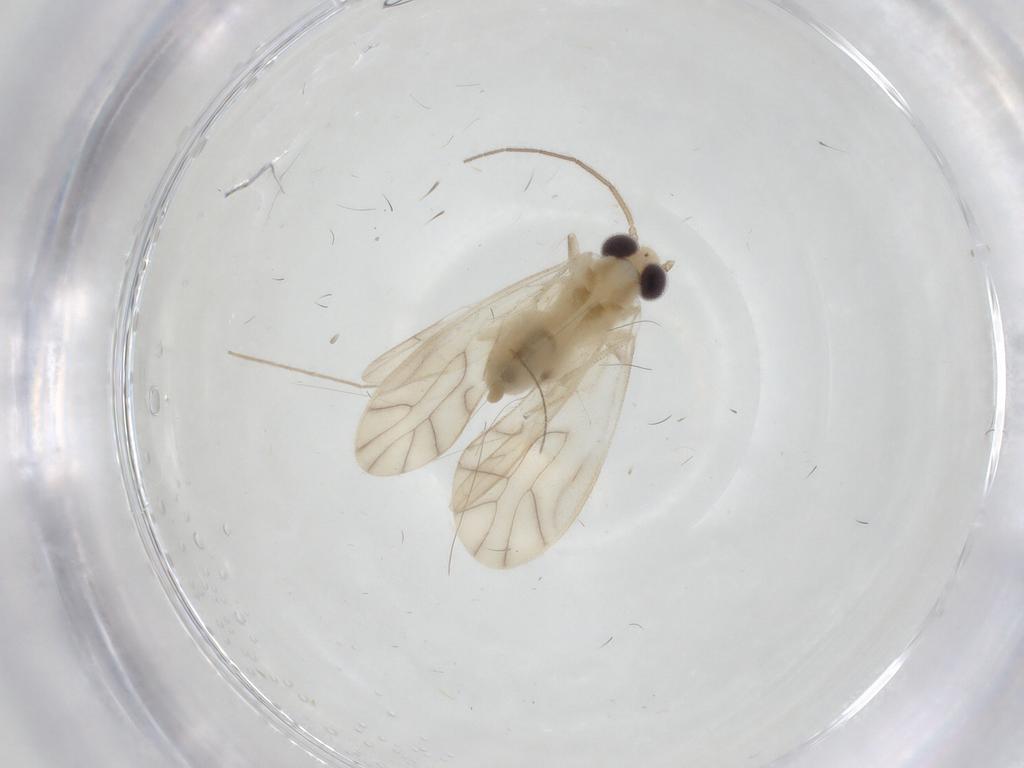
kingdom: Animalia
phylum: Arthropoda
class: Insecta
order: Psocodea
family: Caeciliusidae
